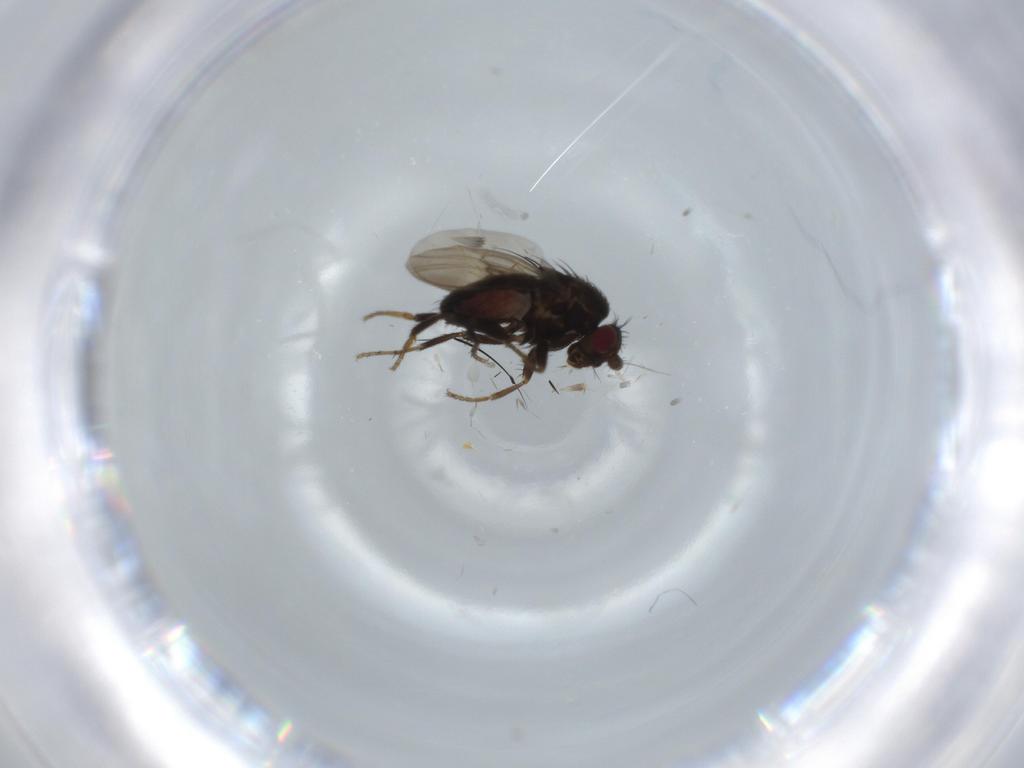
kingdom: Animalia
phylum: Arthropoda
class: Insecta
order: Diptera
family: Sphaeroceridae
